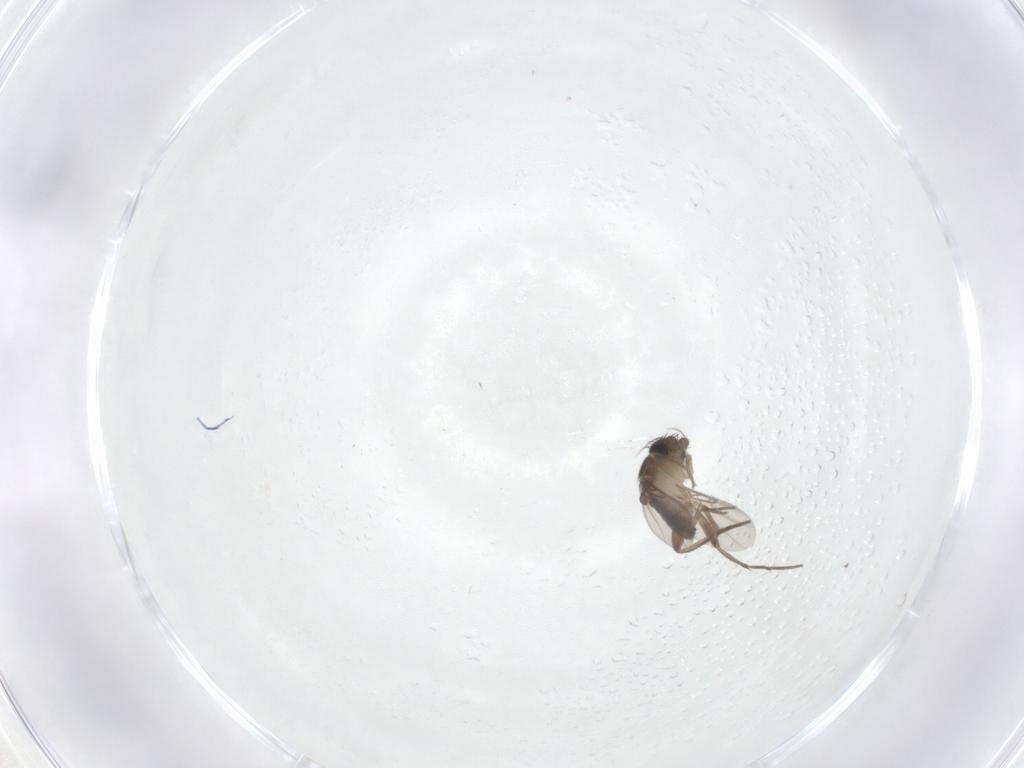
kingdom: Animalia
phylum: Arthropoda
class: Insecta
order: Diptera
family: Phoridae
